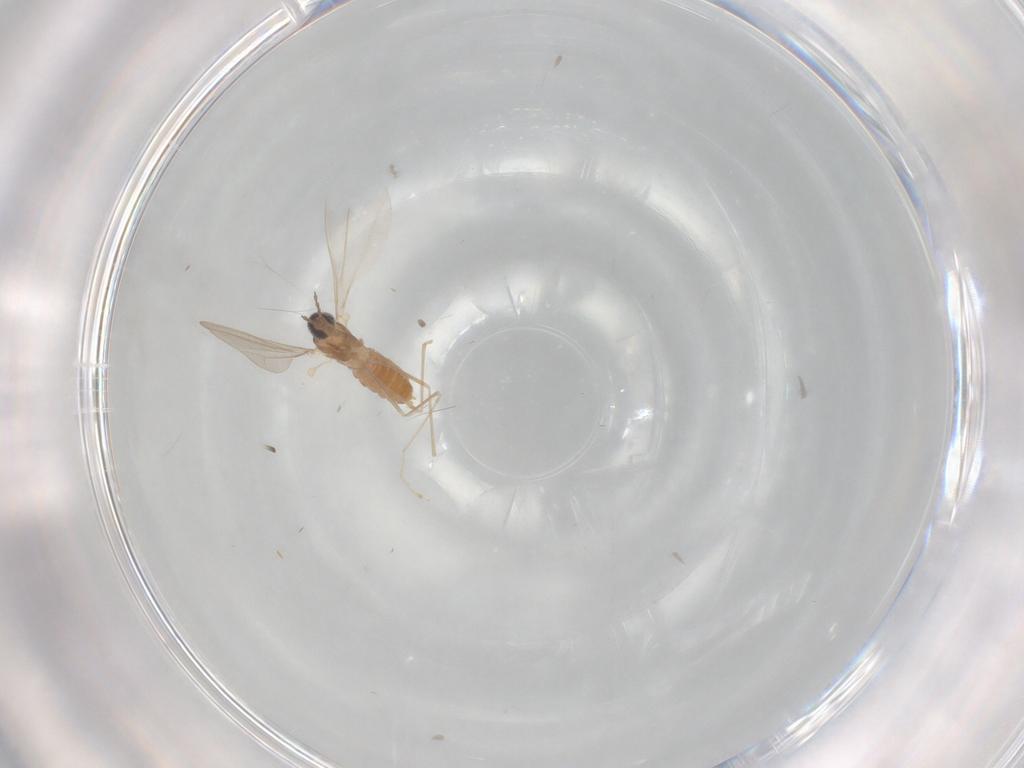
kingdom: Animalia
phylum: Arthropoda
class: Insecta
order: Diptera
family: Cecidomyiidae
